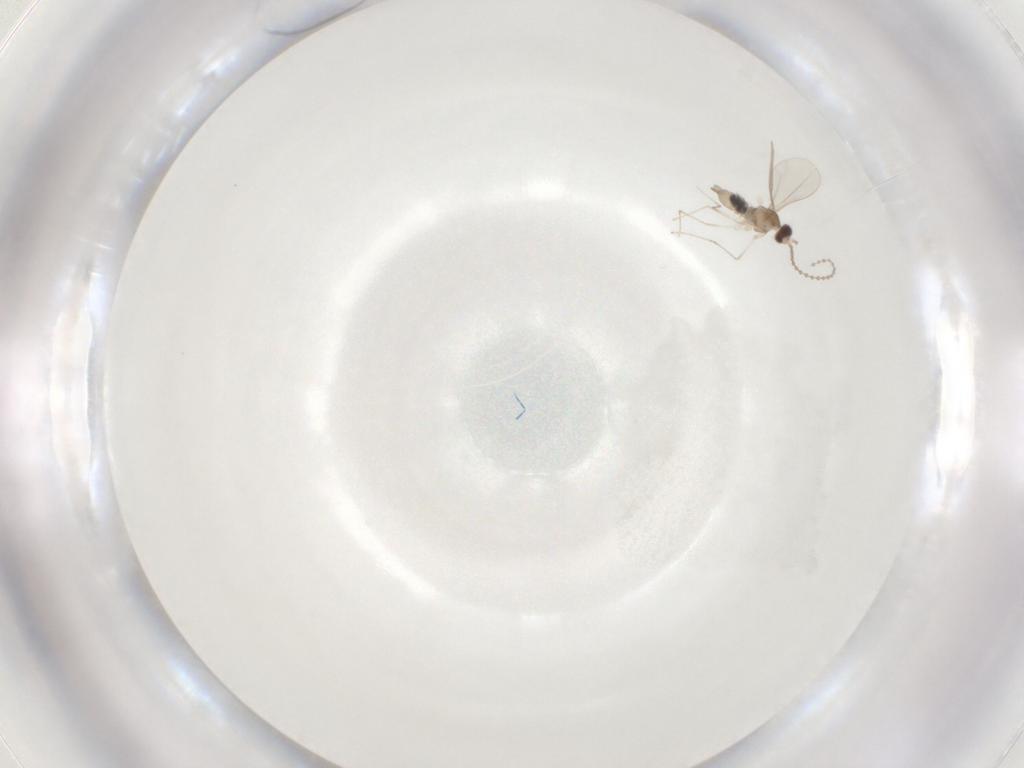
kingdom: Animalia
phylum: Arthropoda
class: Insecta
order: Diptera
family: Cecidomyiidae
